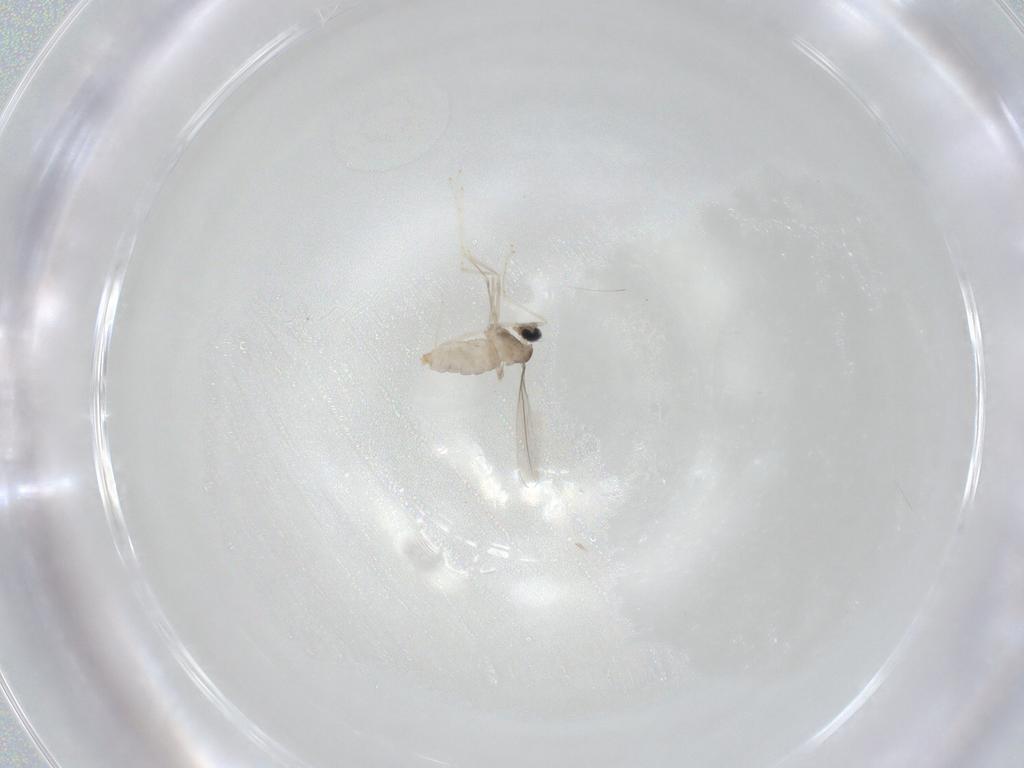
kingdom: Animalia
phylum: Arthropoda
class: Insecta
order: Diptera
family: Cecidomyiidae
